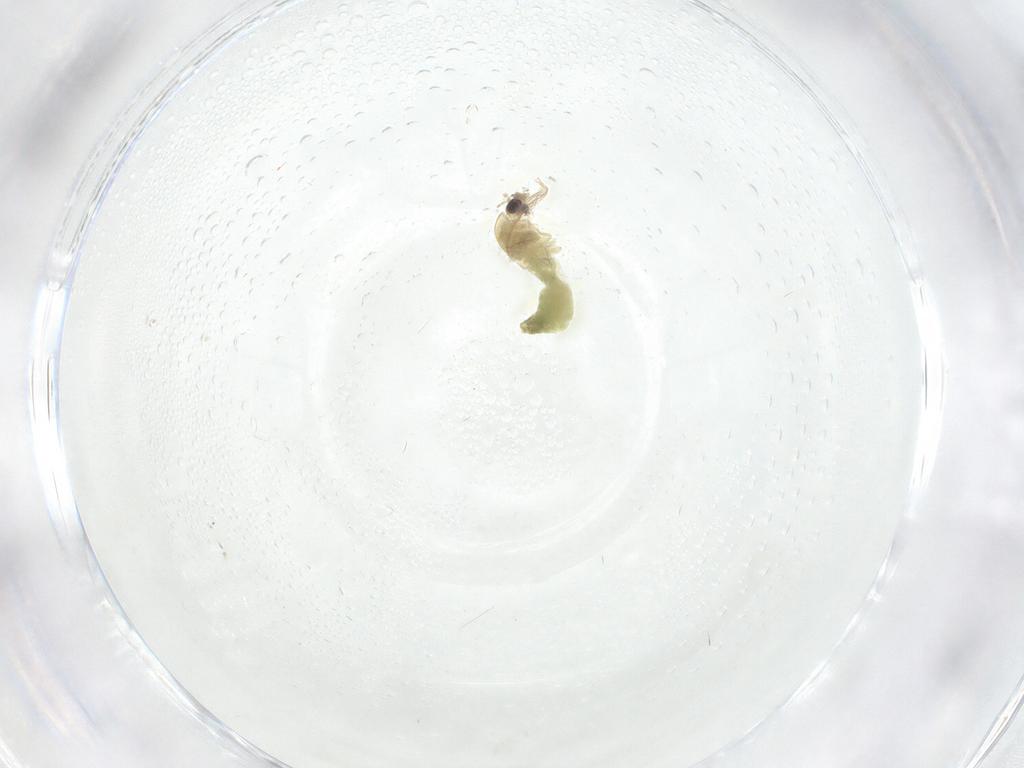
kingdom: Animalia
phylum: Arthropoda
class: Insecta
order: Diptera
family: Chironomidae
